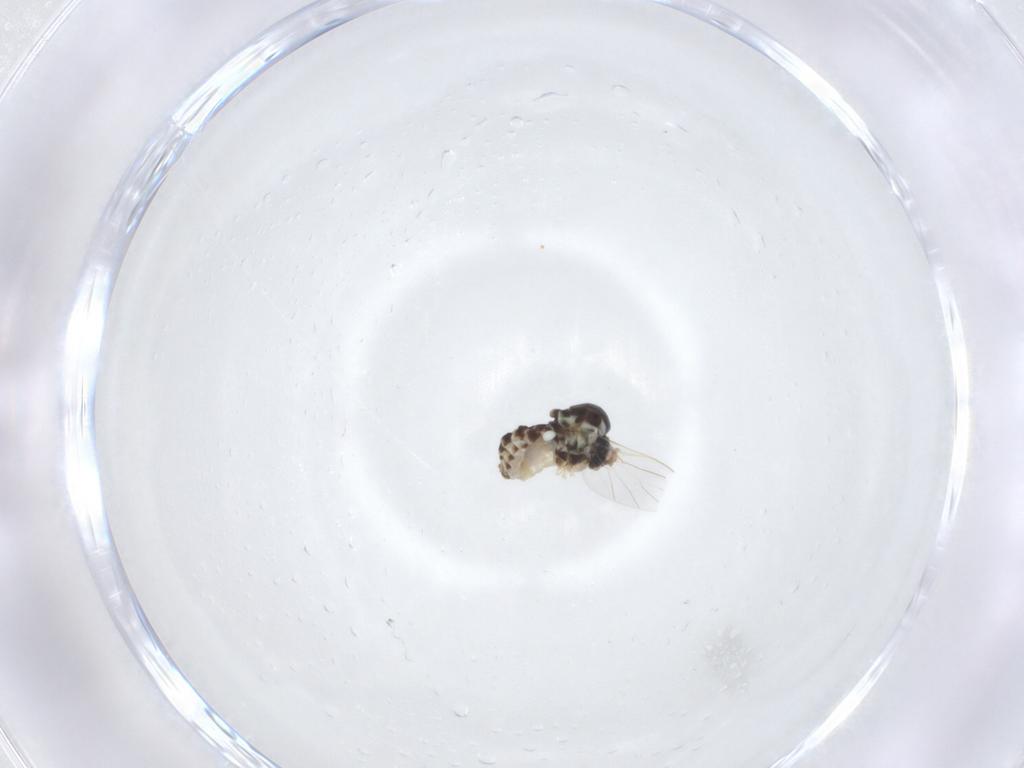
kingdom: Animalia
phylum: Arthropoda
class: Insecta
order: Diptera
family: Bombyliidae
